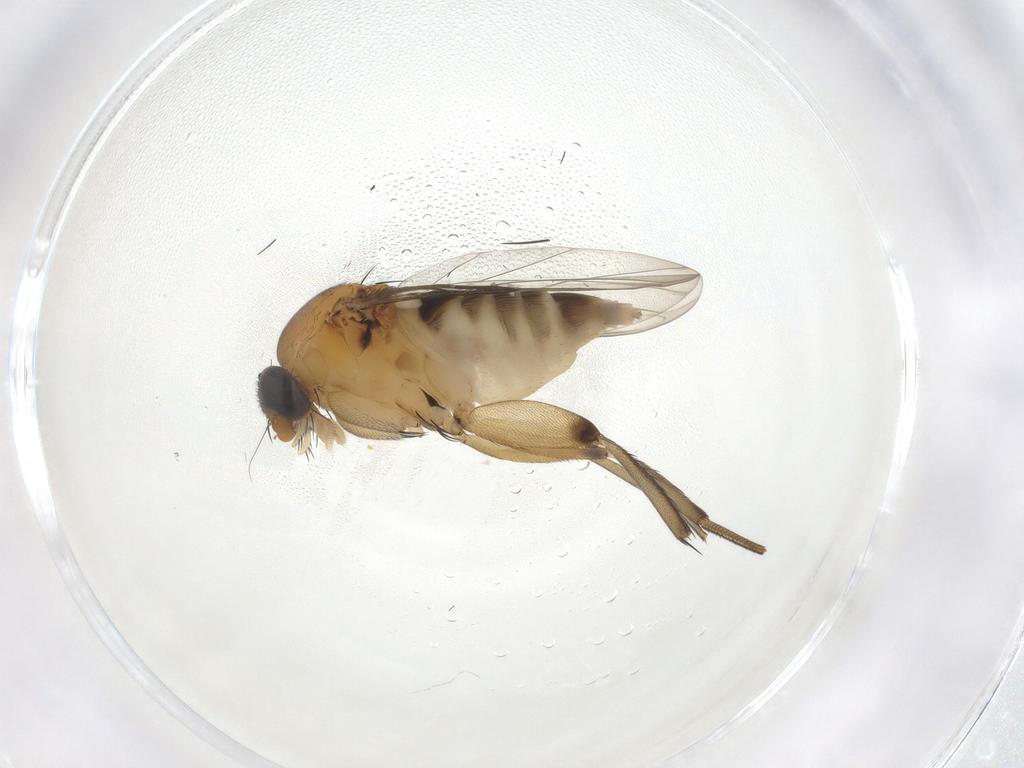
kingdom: Animalia
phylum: Arthropoda
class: Insecta
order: Diptera
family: Phoridae
